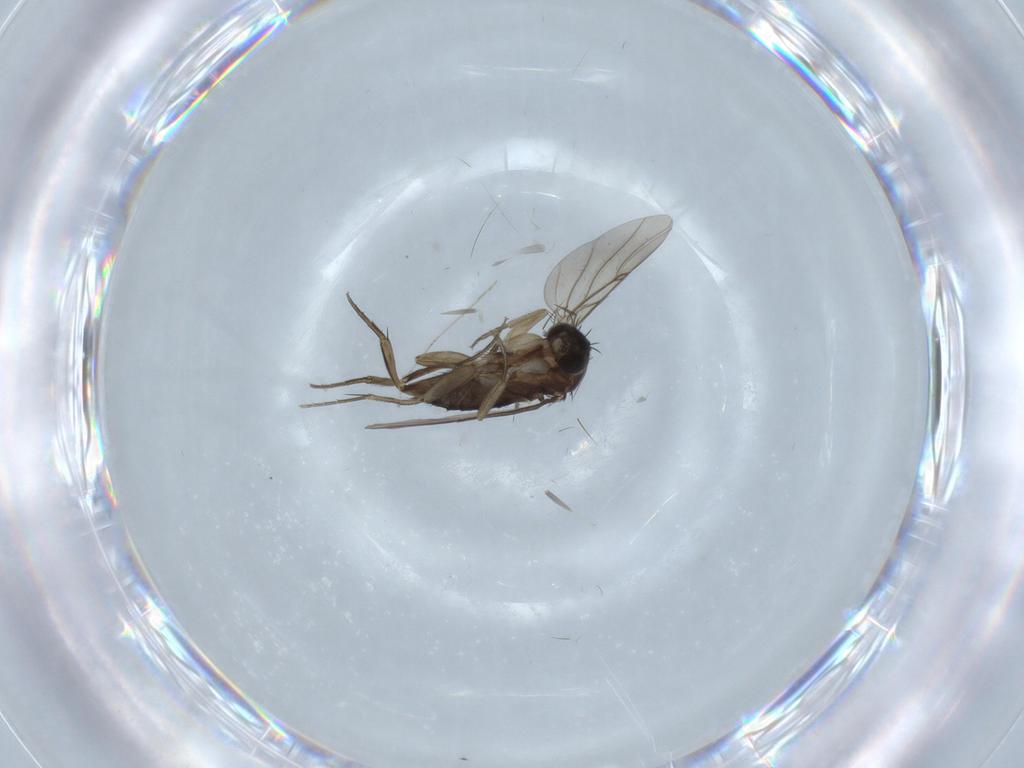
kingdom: Animalia
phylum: Arthropoda
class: Insecta
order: Diptera
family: Phoridae
